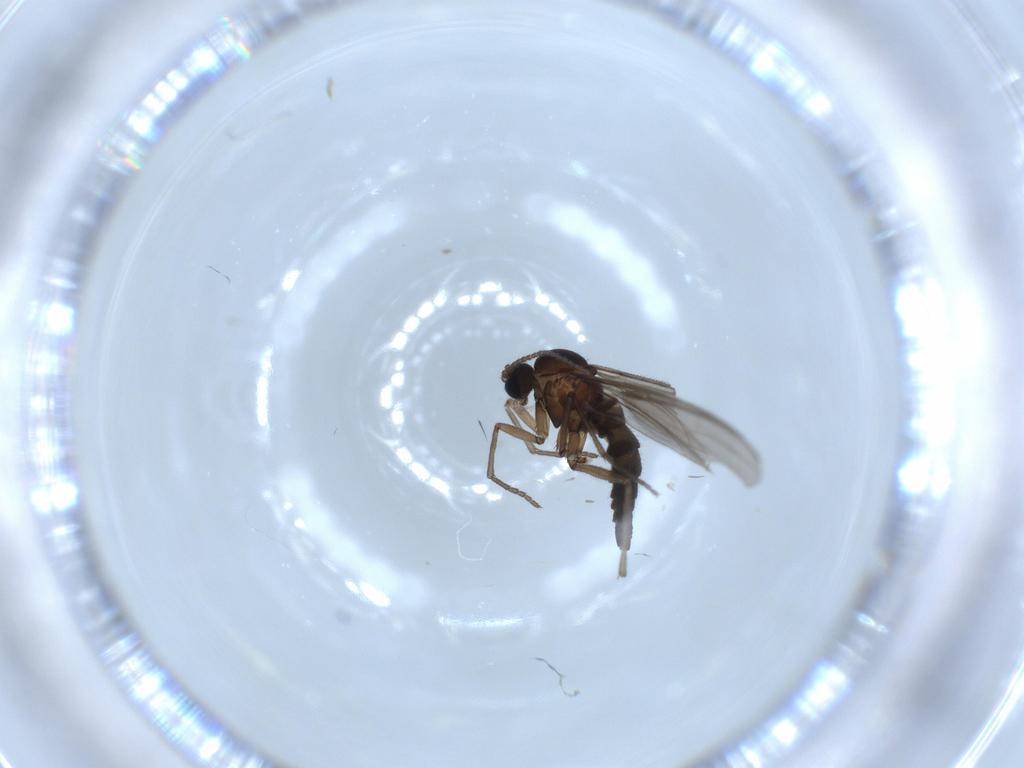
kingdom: Animalia
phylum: Arthropoda
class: Insecta
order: Diptera
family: Sciaridae
